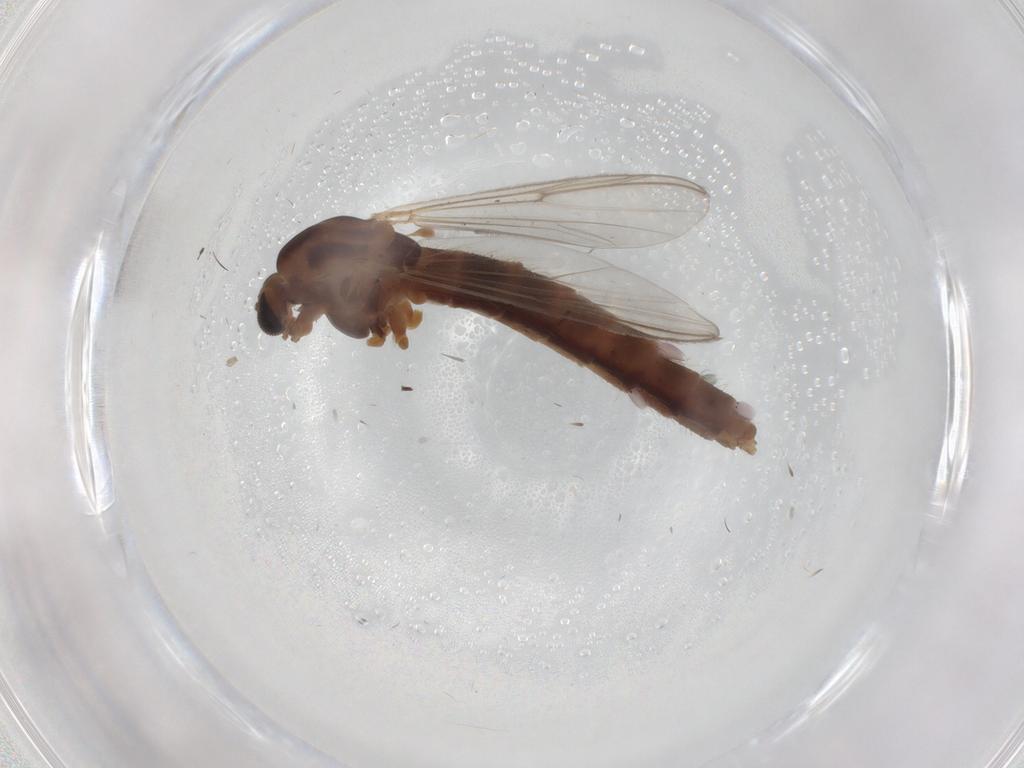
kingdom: Animalia
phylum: Arthropoda
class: Insecta
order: Diptera
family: Chironomidae
